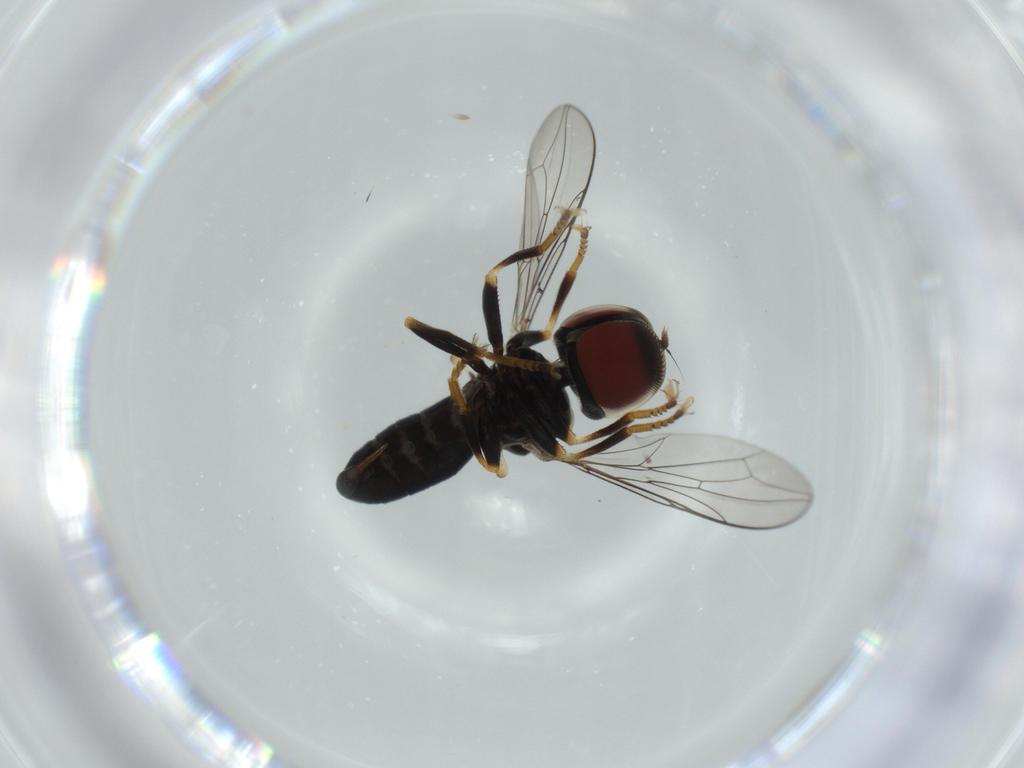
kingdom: Animalia
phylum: Arthropoda
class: Insecta
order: Diptera
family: Pipunculidae
